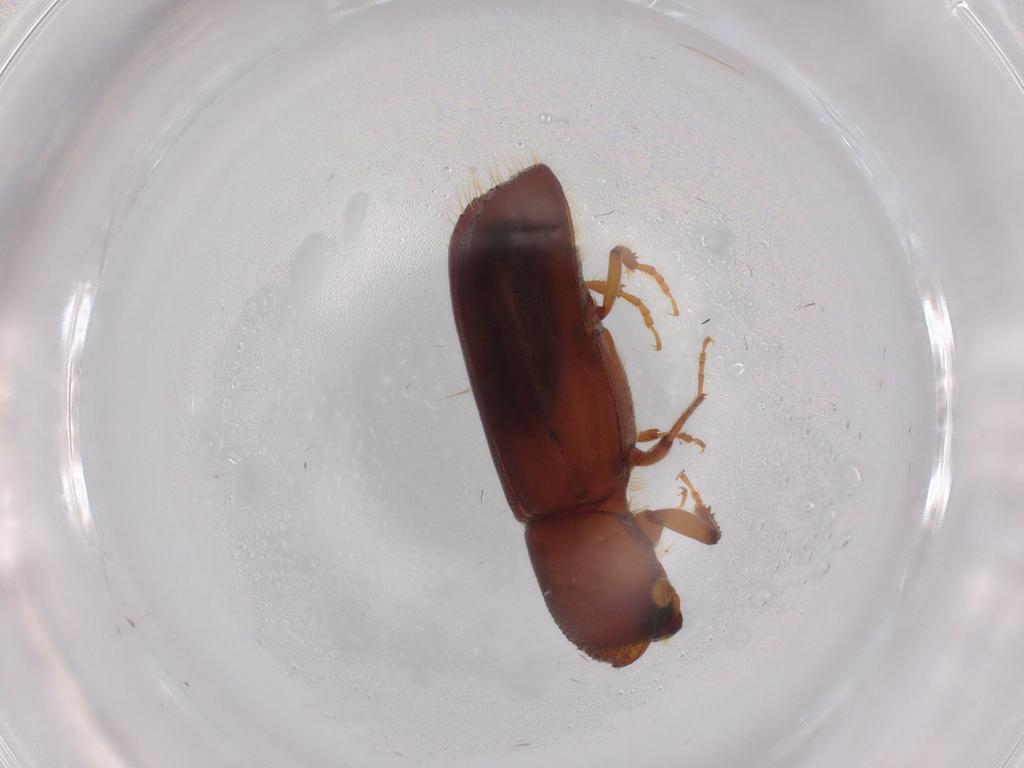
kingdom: Animalia
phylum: Arthropoda
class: Insecta
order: Coleoptera
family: Curculionidae
